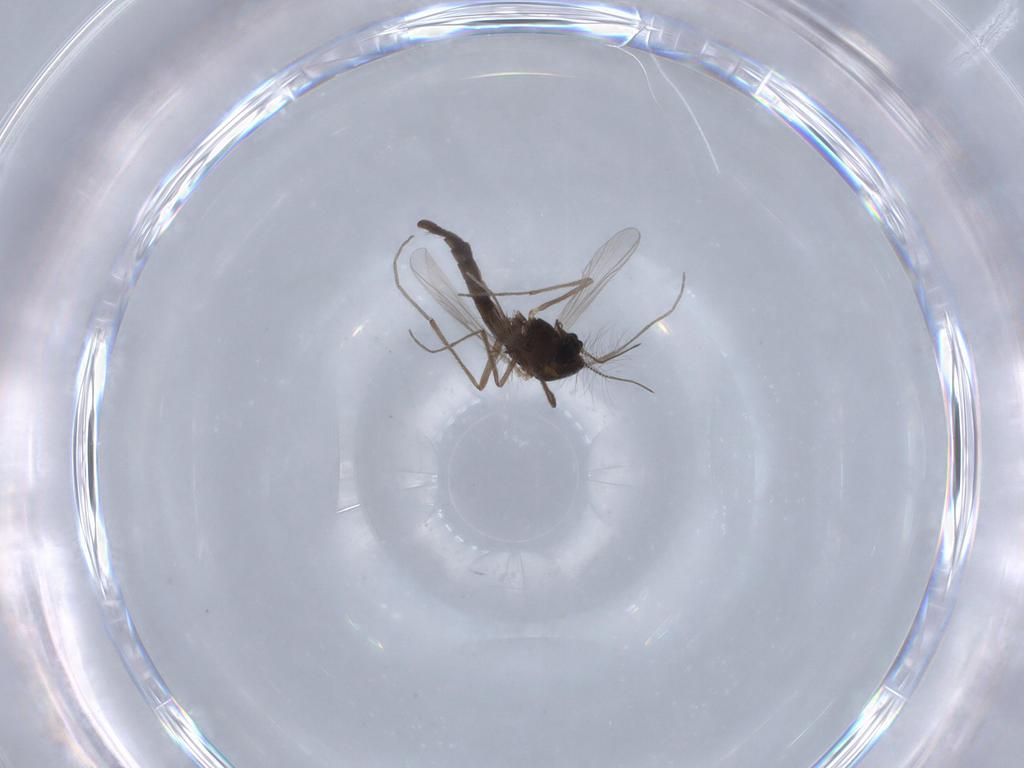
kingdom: Animalia
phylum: Arthropoda
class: Insecta
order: Diptera
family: Chironomidae
